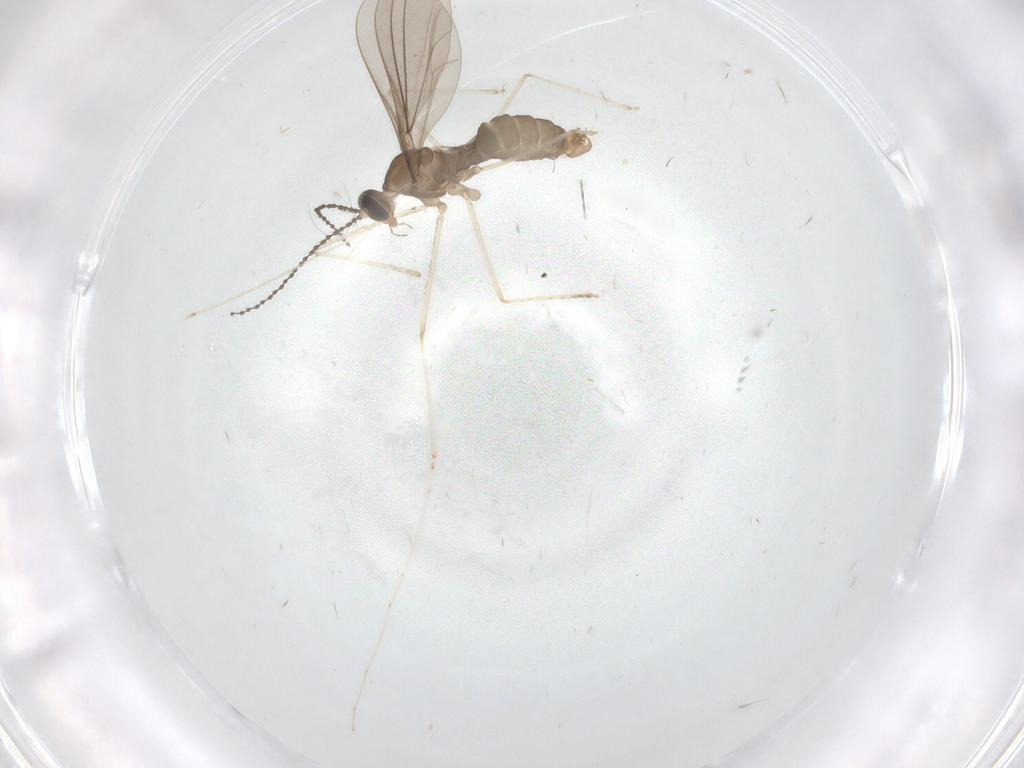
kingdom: Animalia
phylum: Arthropoda
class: Insecta
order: Diptera
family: Cecidomyiidae
